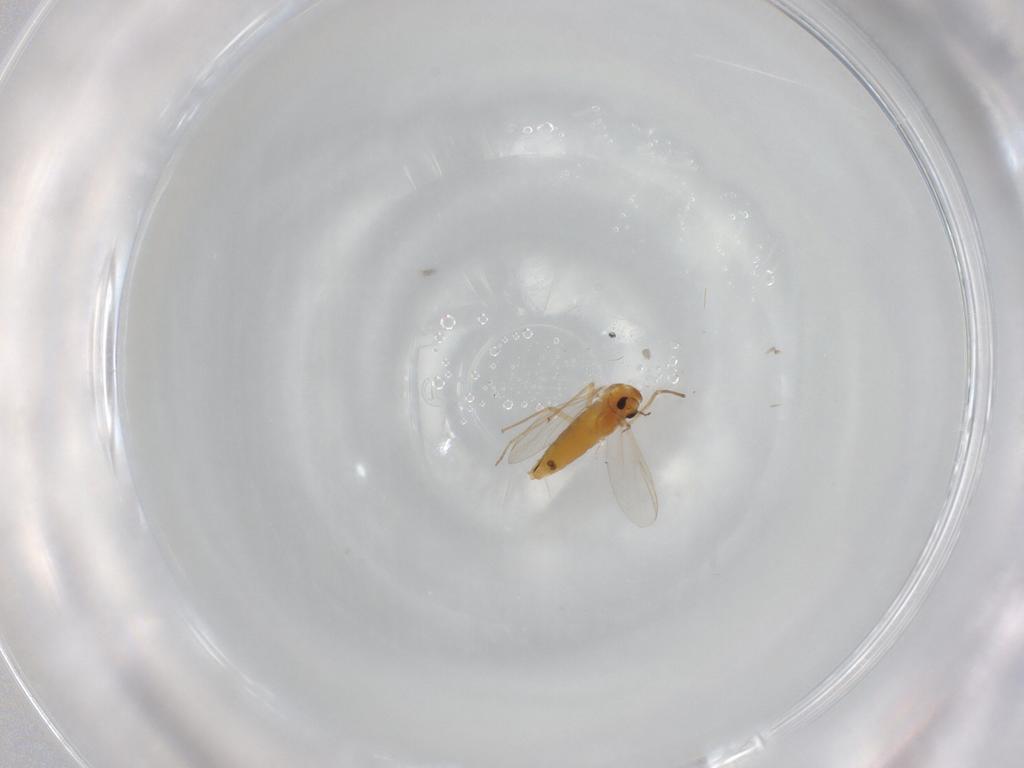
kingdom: Animalia
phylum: Arthropoda
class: Insecta
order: Diptera
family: Chironomidae
